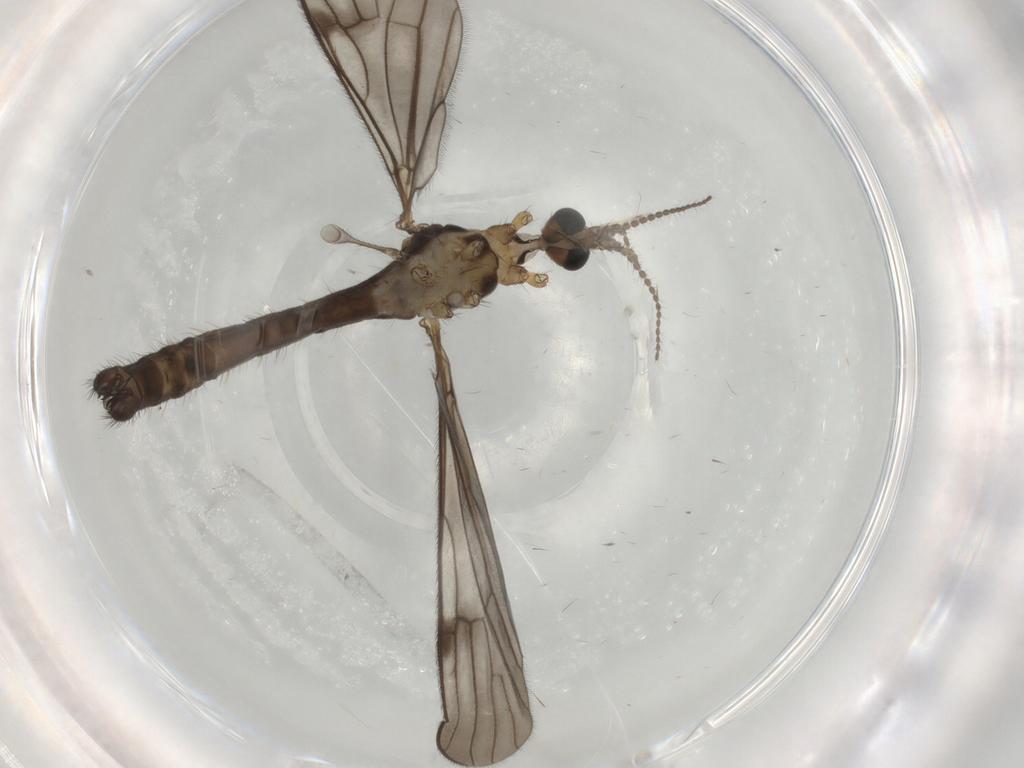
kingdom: Animalia
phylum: Arthropoda
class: Insecta
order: Diptera
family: Limoniidae
